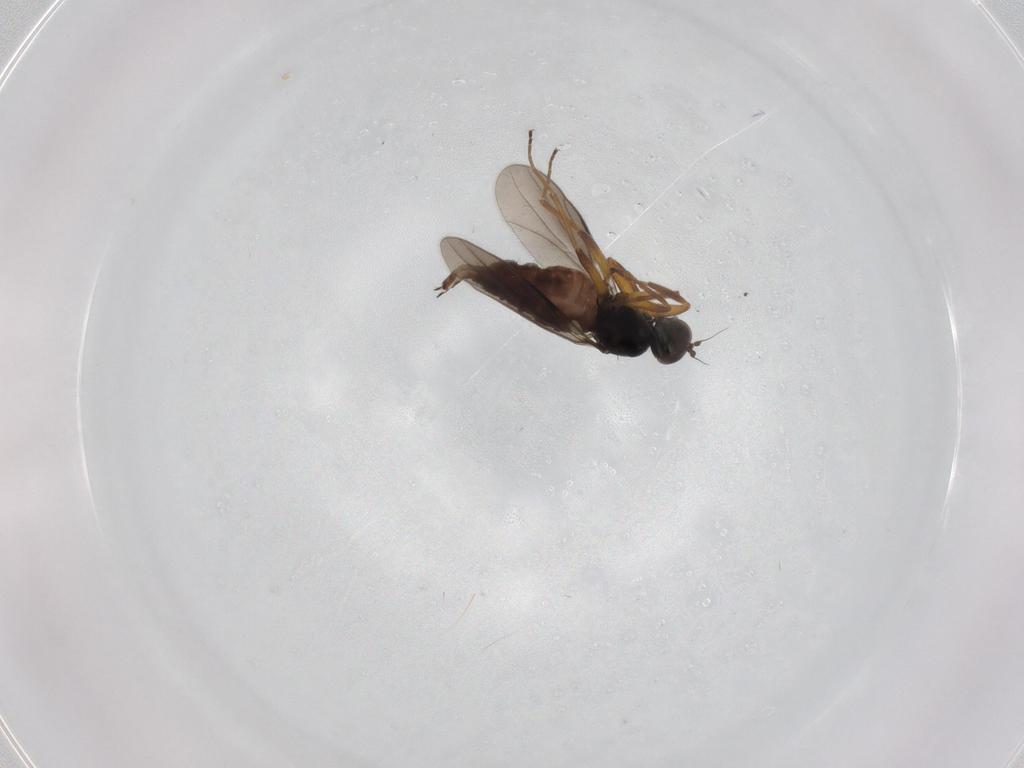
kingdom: Animalia
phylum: Arthropoda
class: Insecta
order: Diptera
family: Hybotidae
